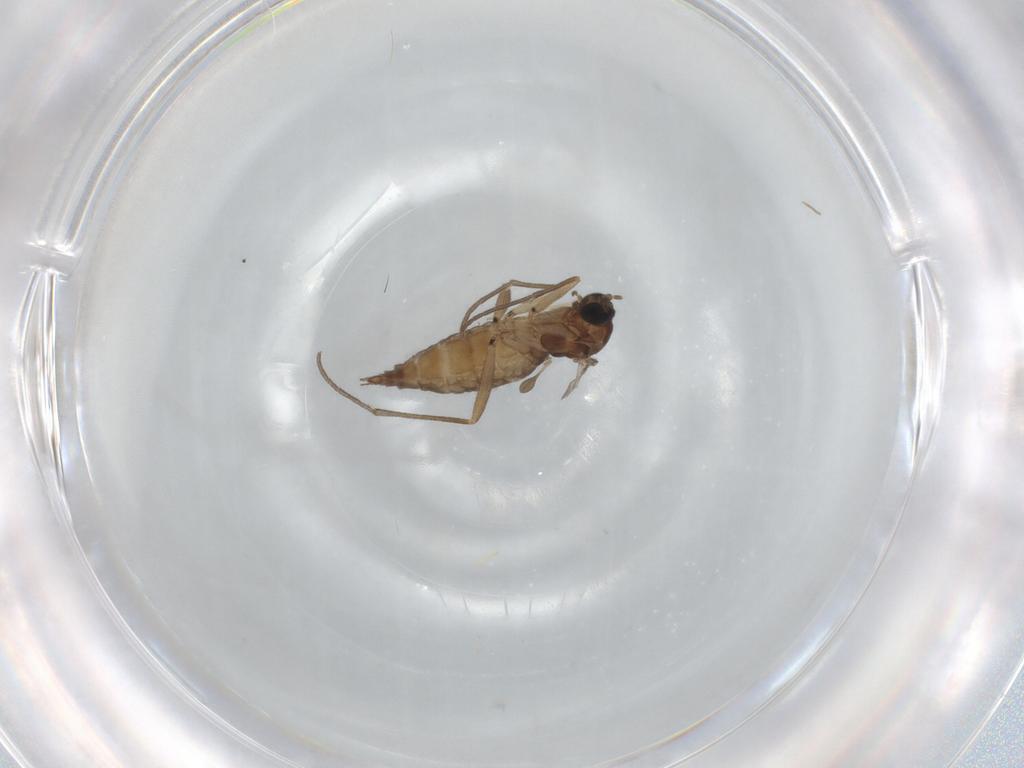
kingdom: Animalia
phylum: Arthropoda
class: Insecta
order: Diptera
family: Sciaridae
